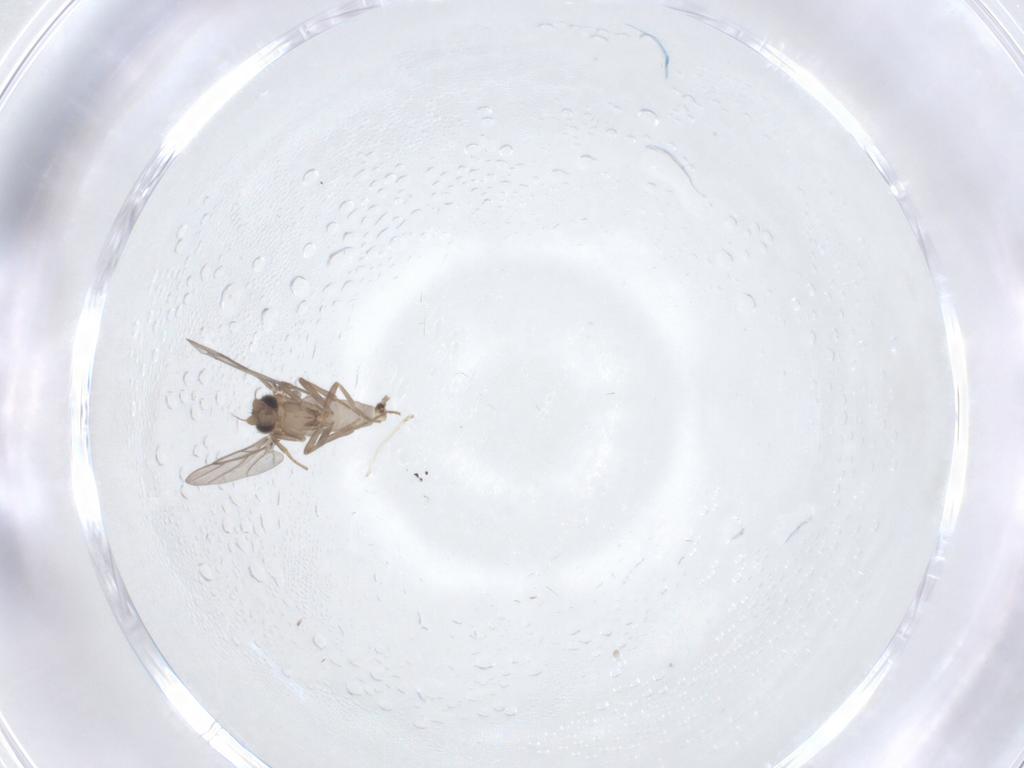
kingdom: Animalia
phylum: Arthropoda
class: Insecta
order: Diptera
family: Cecidomyiidae
